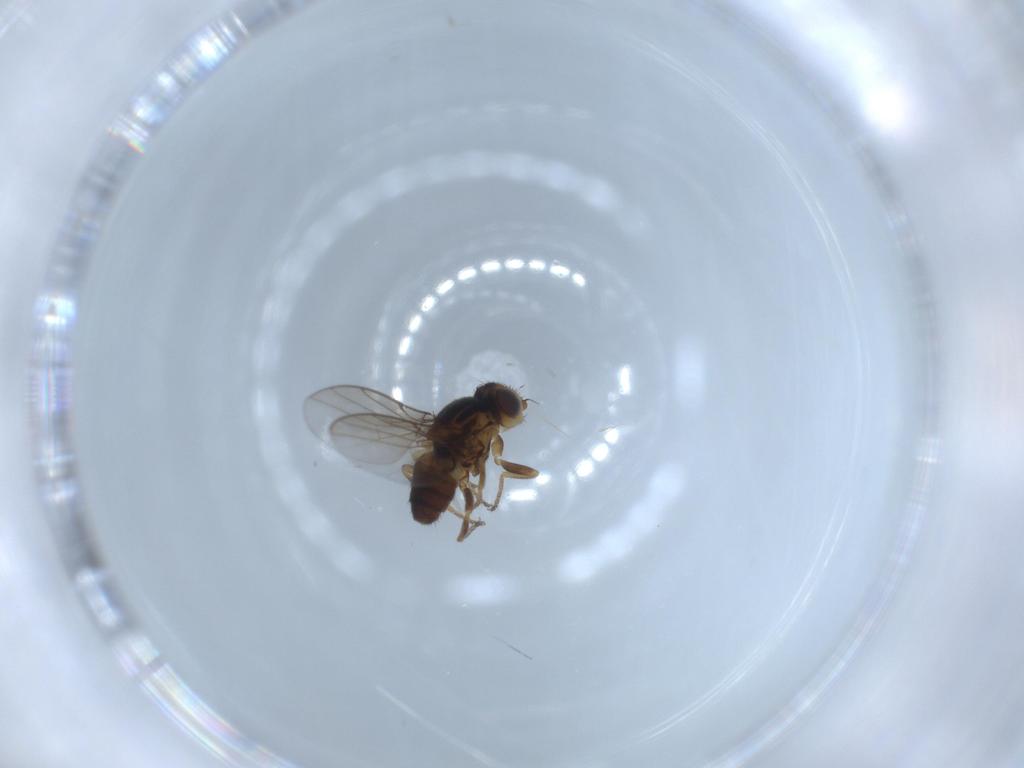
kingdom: Animalia
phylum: Arthropoda
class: Insecta
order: Diptera
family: Chloropidae
